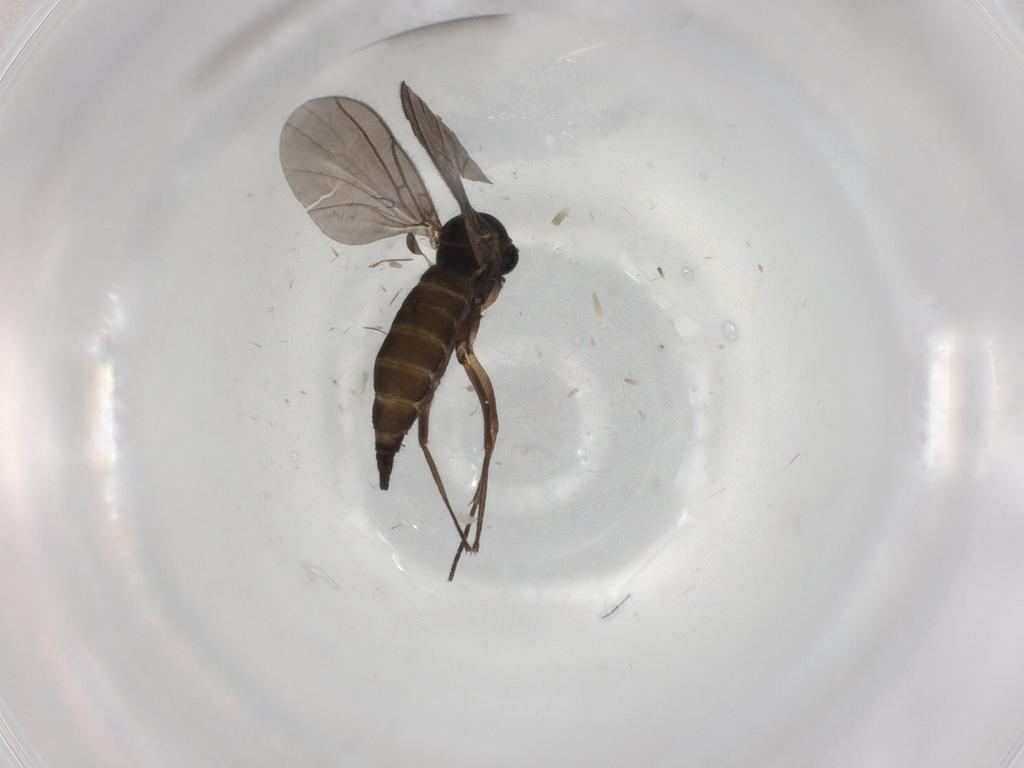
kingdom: Animalia
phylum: Arthropoda
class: Insecta
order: Diptera
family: Sciaridae
